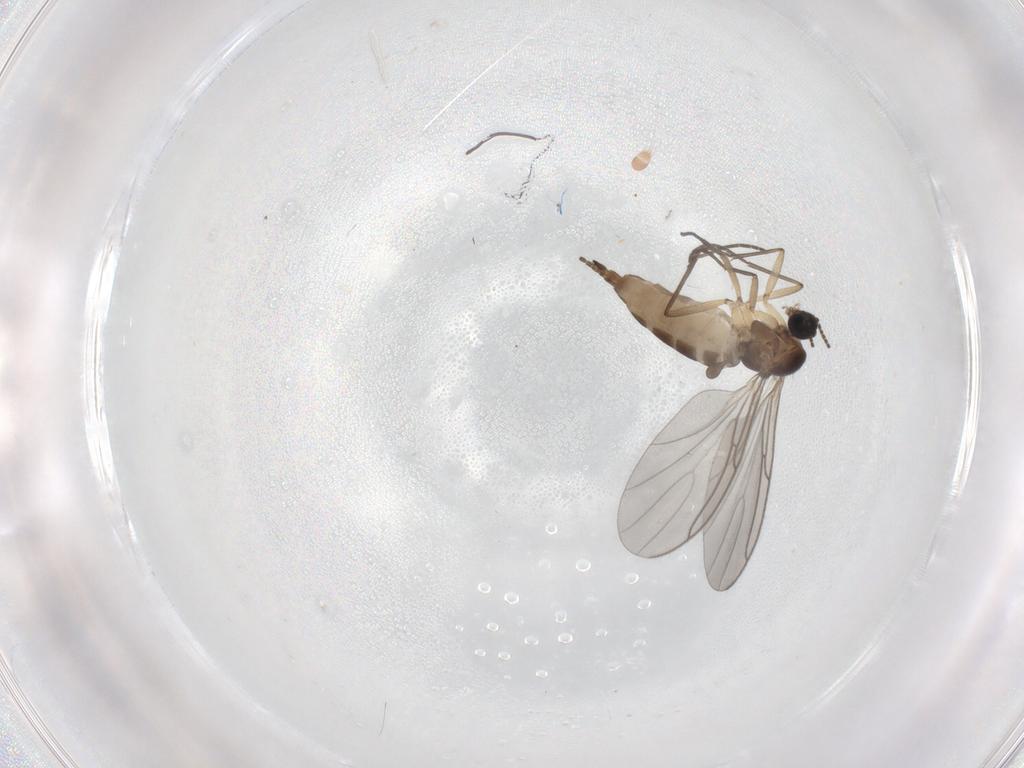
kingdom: Animalia
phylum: Arthropoda
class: Insecta
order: Diptera
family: Sciaridae
